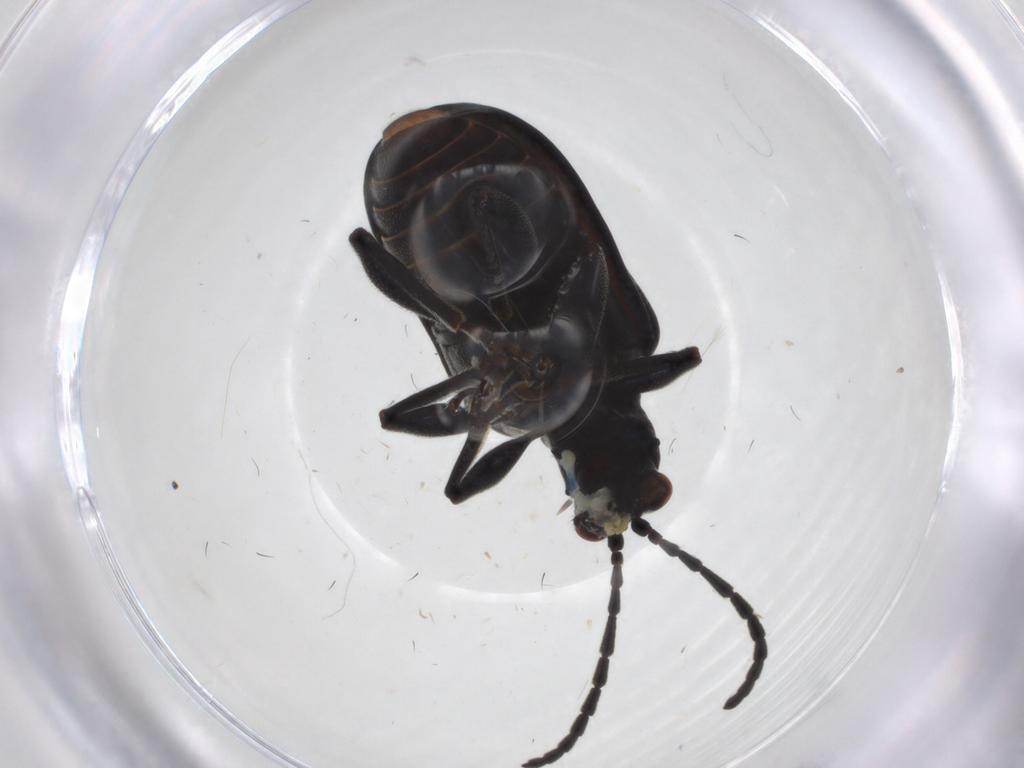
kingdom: Animalia
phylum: Arthropoda
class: Insecta
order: Coleoptera
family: Chrysomelidae
